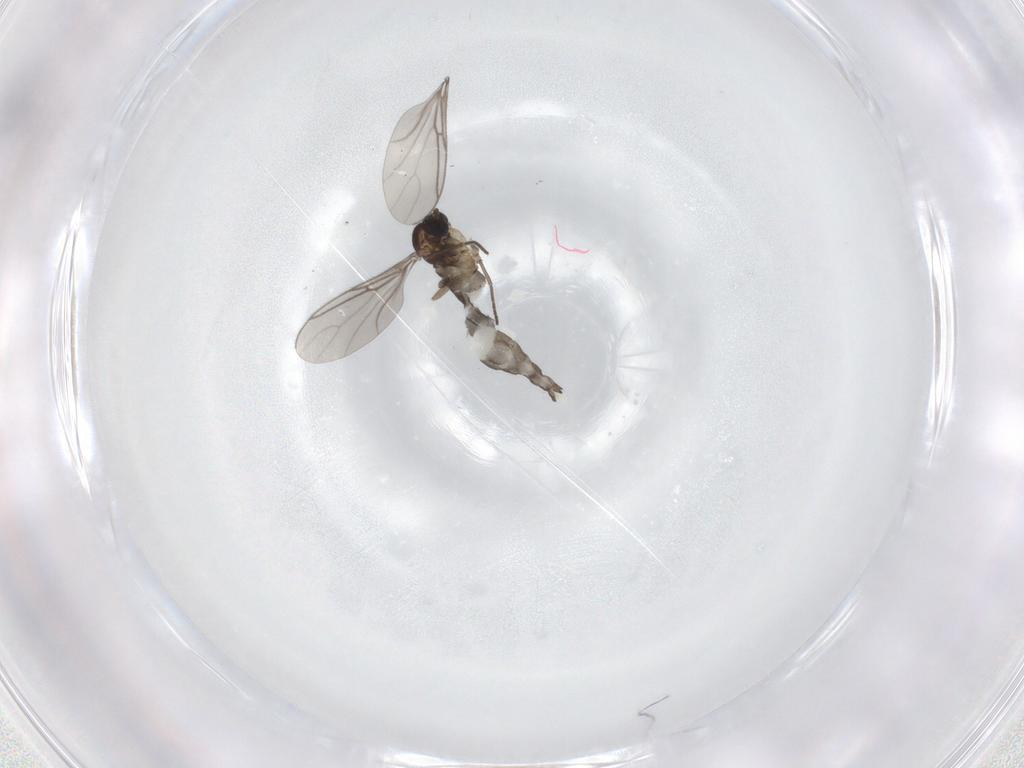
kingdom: Animalia
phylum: Arthropoda
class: Insecta
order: Diptera
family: Sciaridae
